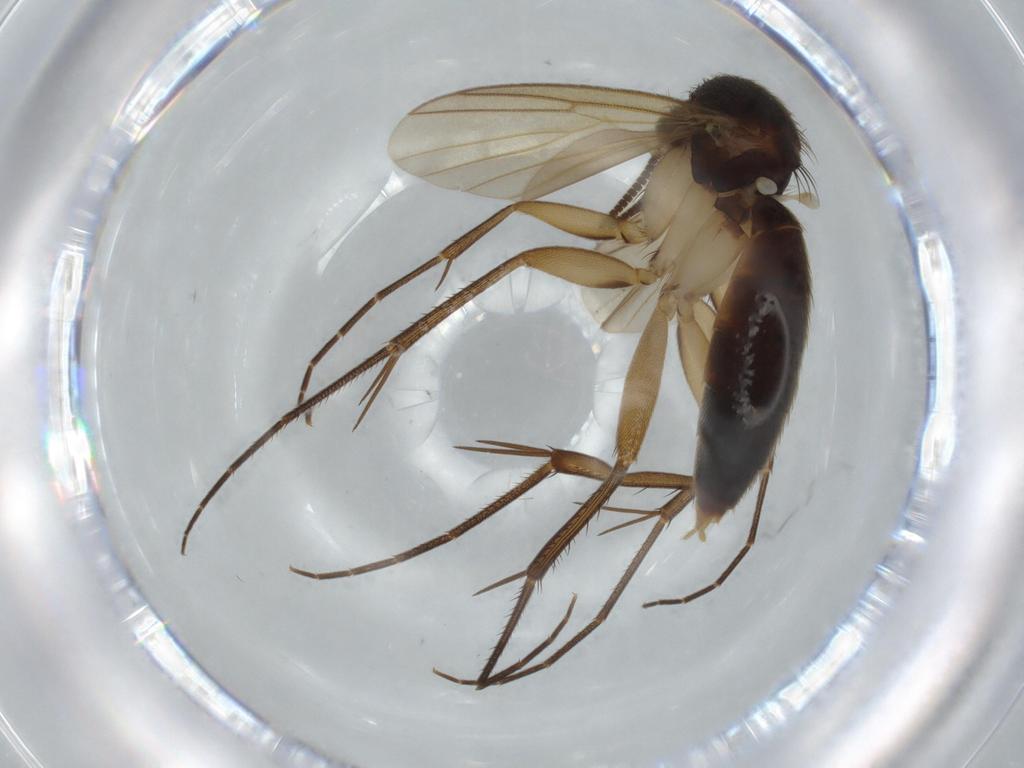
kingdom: Animalia
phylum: Arthropoda
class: Insecta
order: Diptera
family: Mycetophilidae
